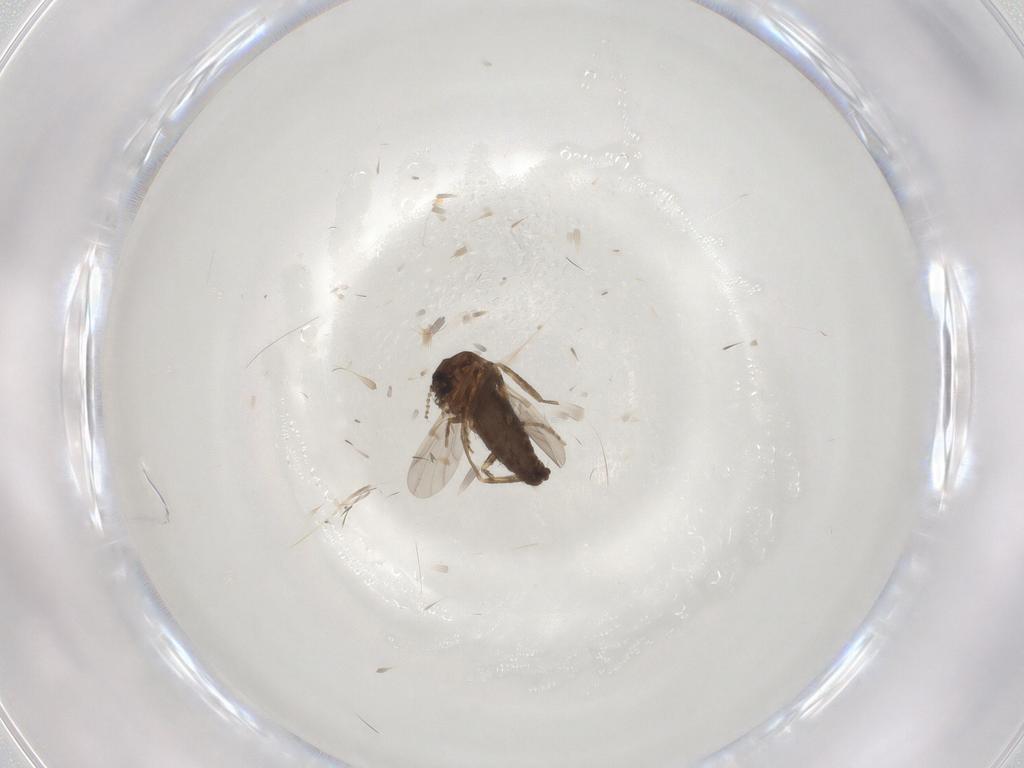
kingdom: Animalia
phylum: Arthropoda
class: Insecta
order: Diptera
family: Ceratopogonidae
